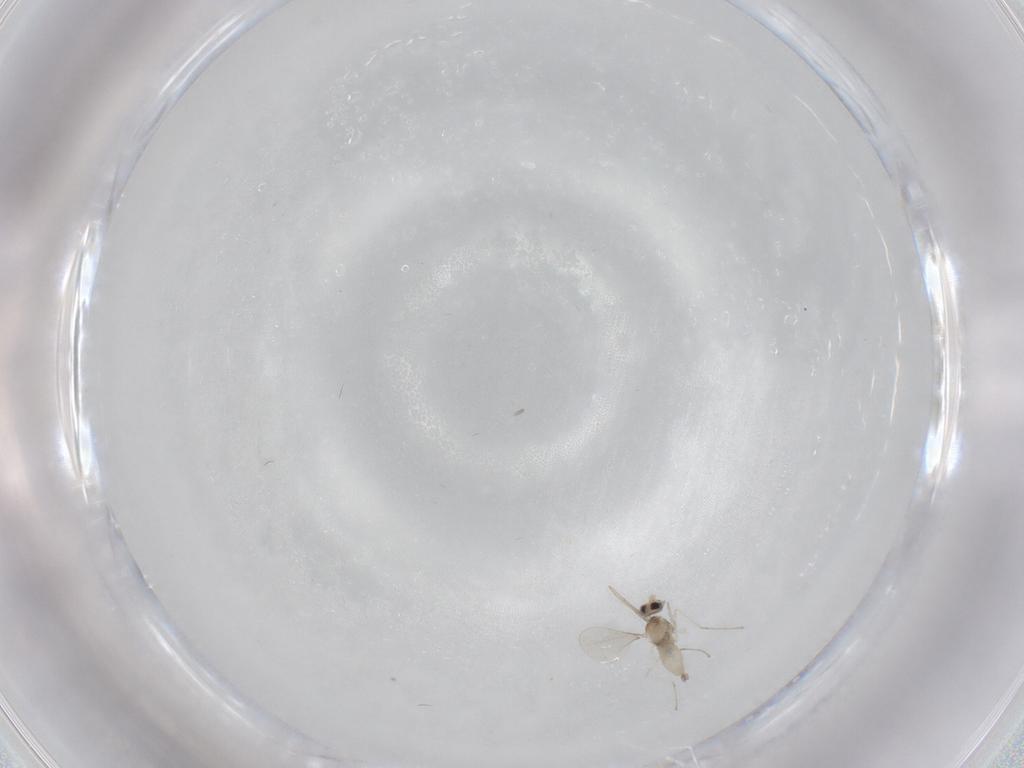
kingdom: Animalia
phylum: Arthropoda
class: Insecta
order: Diptera
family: Cecidomyiidae
